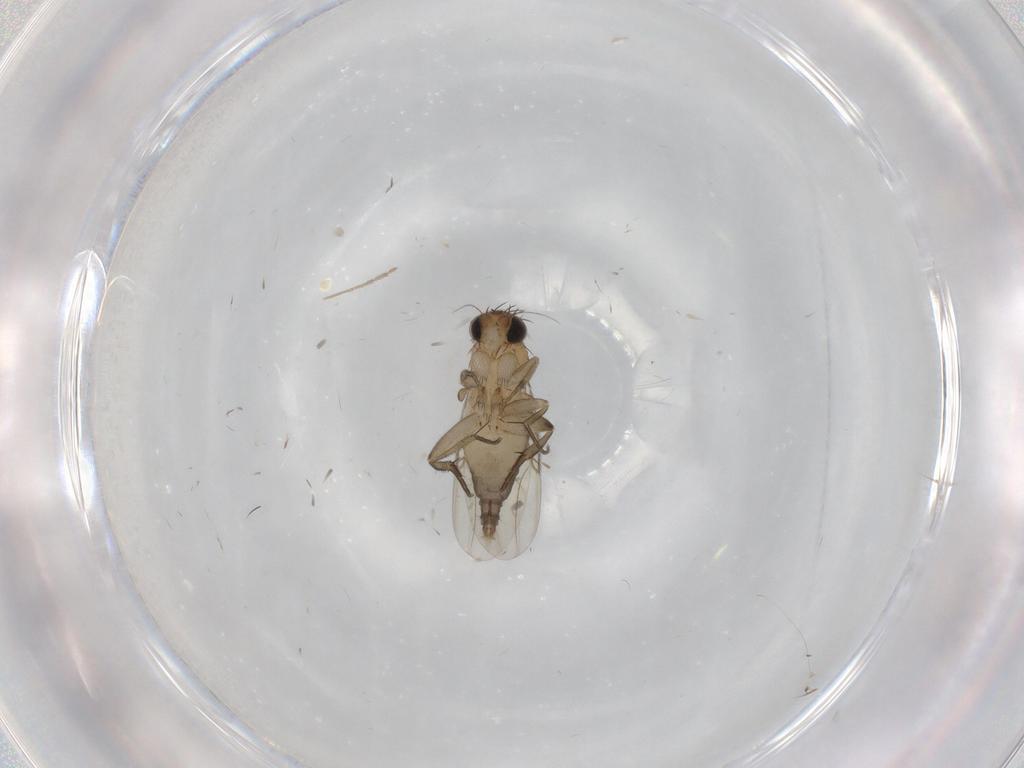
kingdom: Animalia
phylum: Arthropoda
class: Insecta
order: Diptera
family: Phoridae
